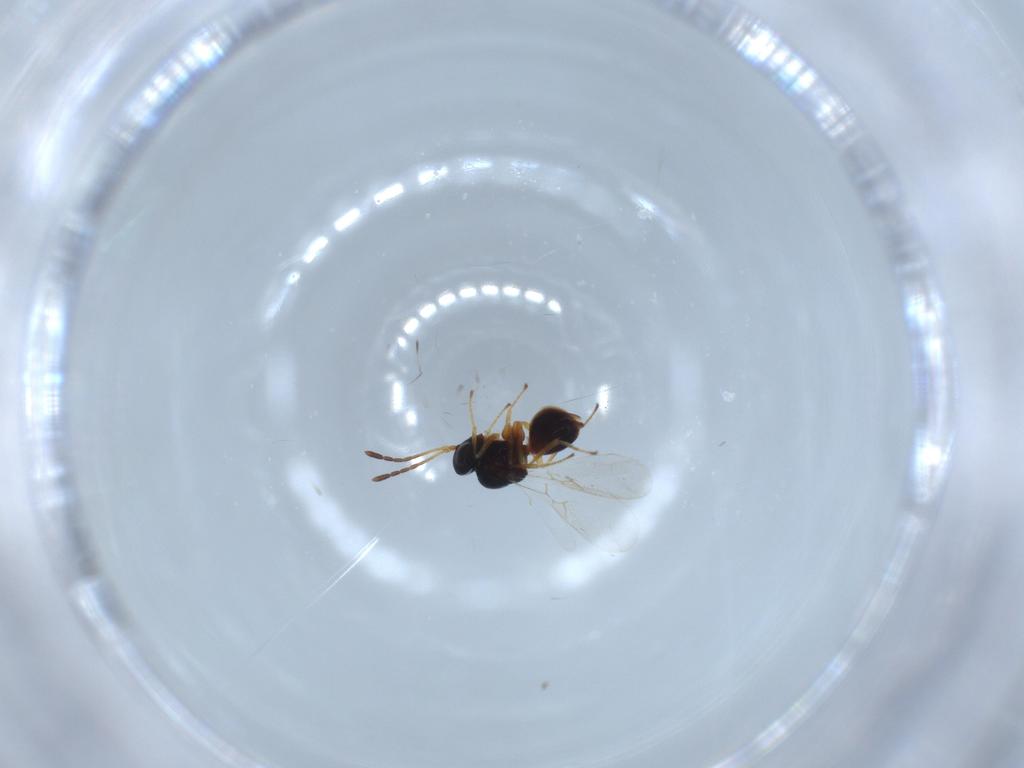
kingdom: Animalia
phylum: Arthropoda
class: Insecta
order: Hymenoptera
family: Figitidae
